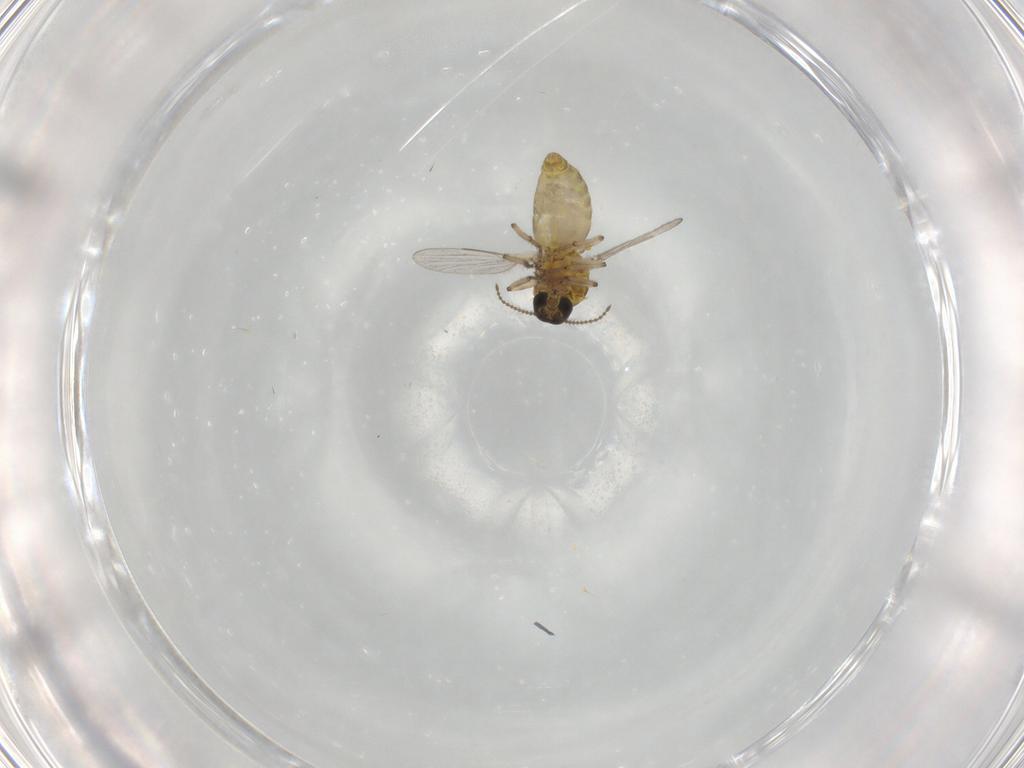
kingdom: Animalia
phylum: Arthropoda
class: Insecta
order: Diptera
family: Ceratopogonidae
